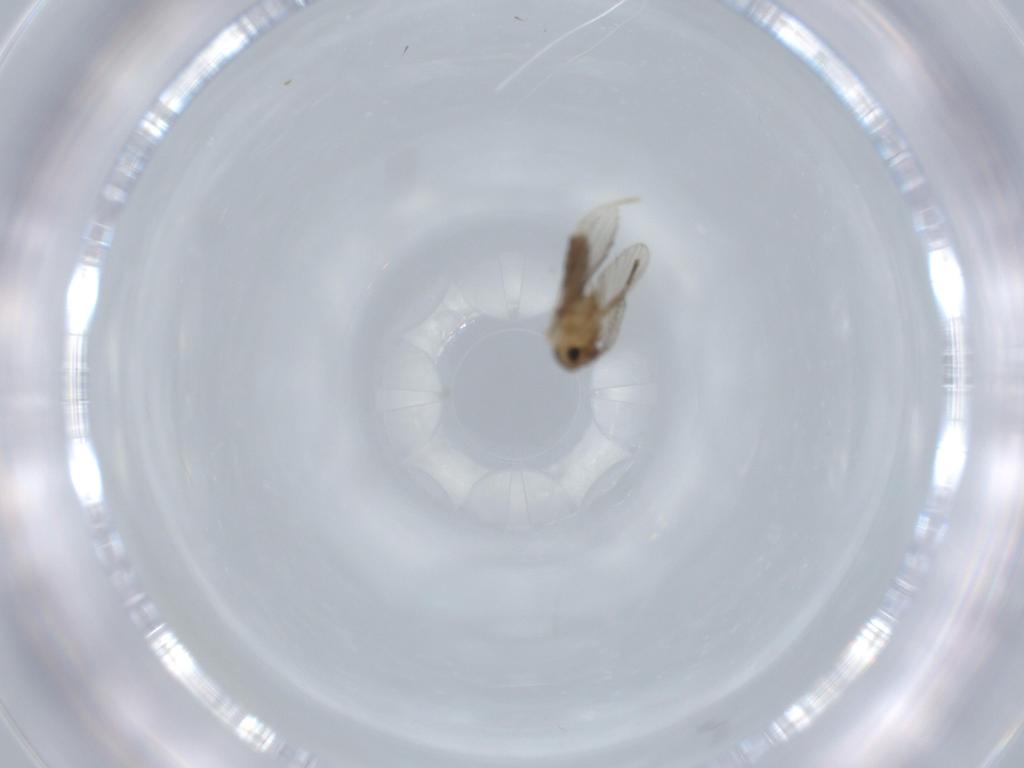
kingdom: Animalia
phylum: Arthropoda
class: Insecta
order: Diptera
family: Psychodidae
